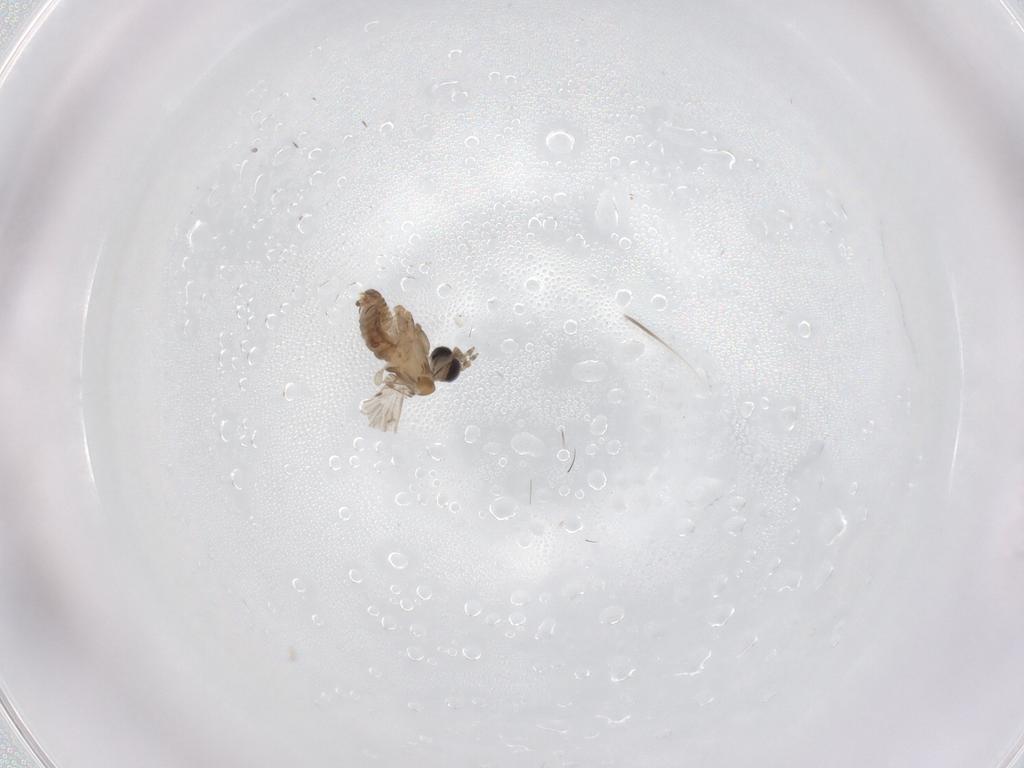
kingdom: Animalia
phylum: Arthropoda
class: Insecta
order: Diptera
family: Psychodidae
